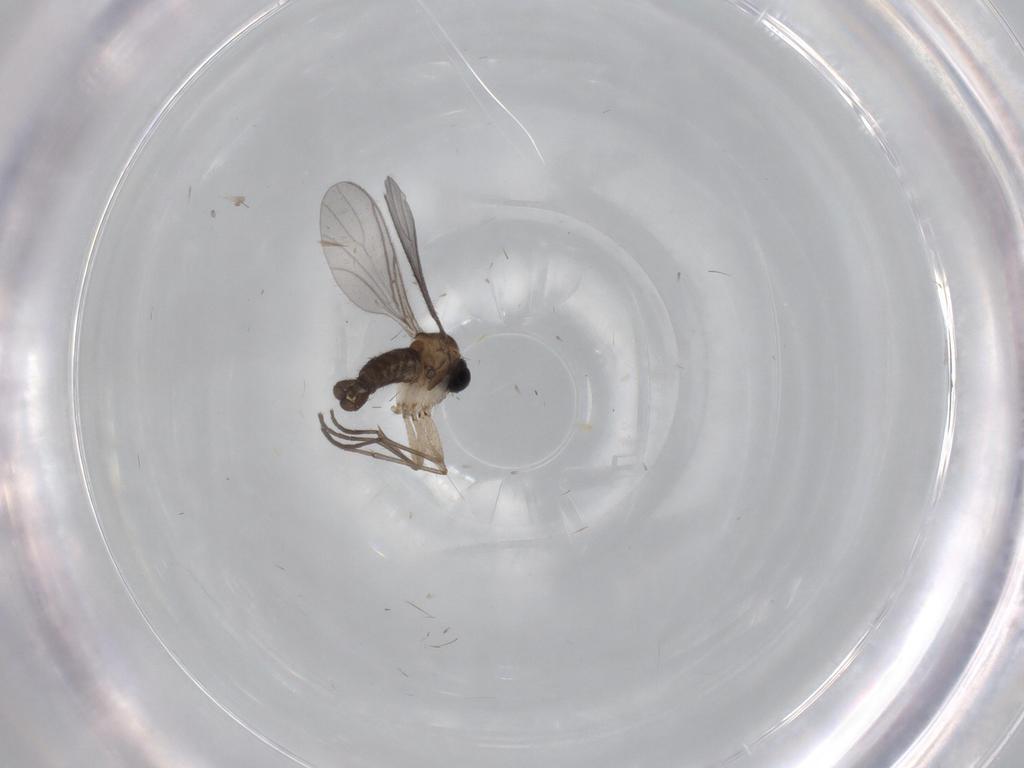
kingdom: Animalia
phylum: Arthropoda
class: Insecta
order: Diptera
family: Sciaridae
